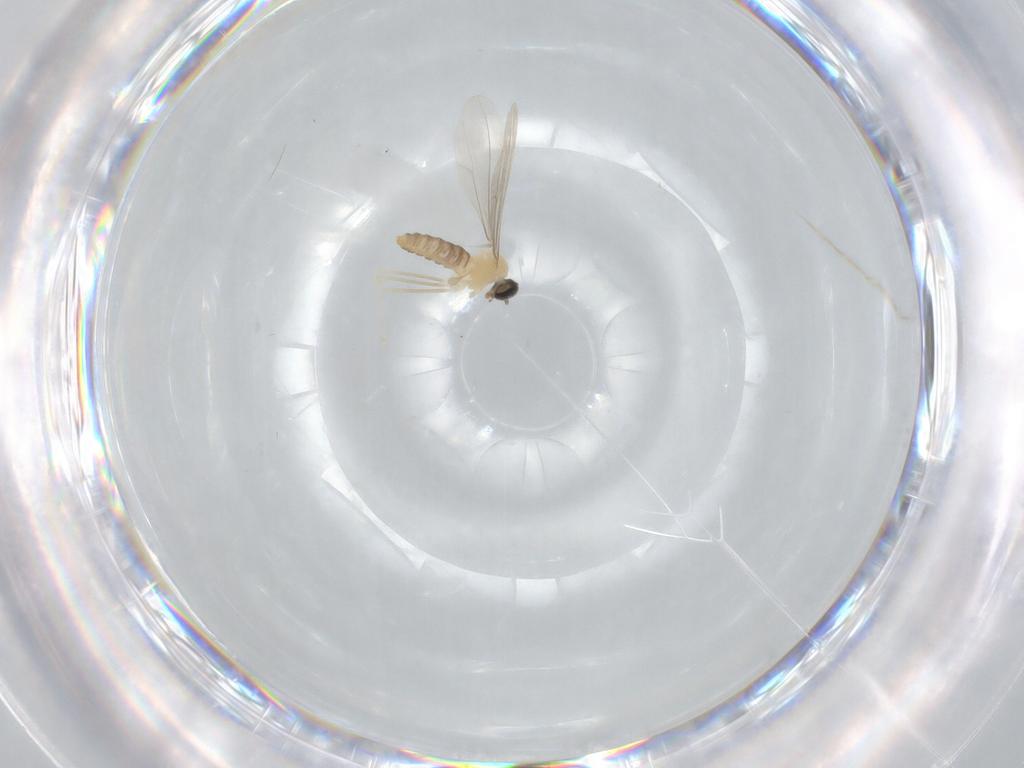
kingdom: Animalia
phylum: Arthropoda
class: Insecta
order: Diptera
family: Cecidomyiidae
